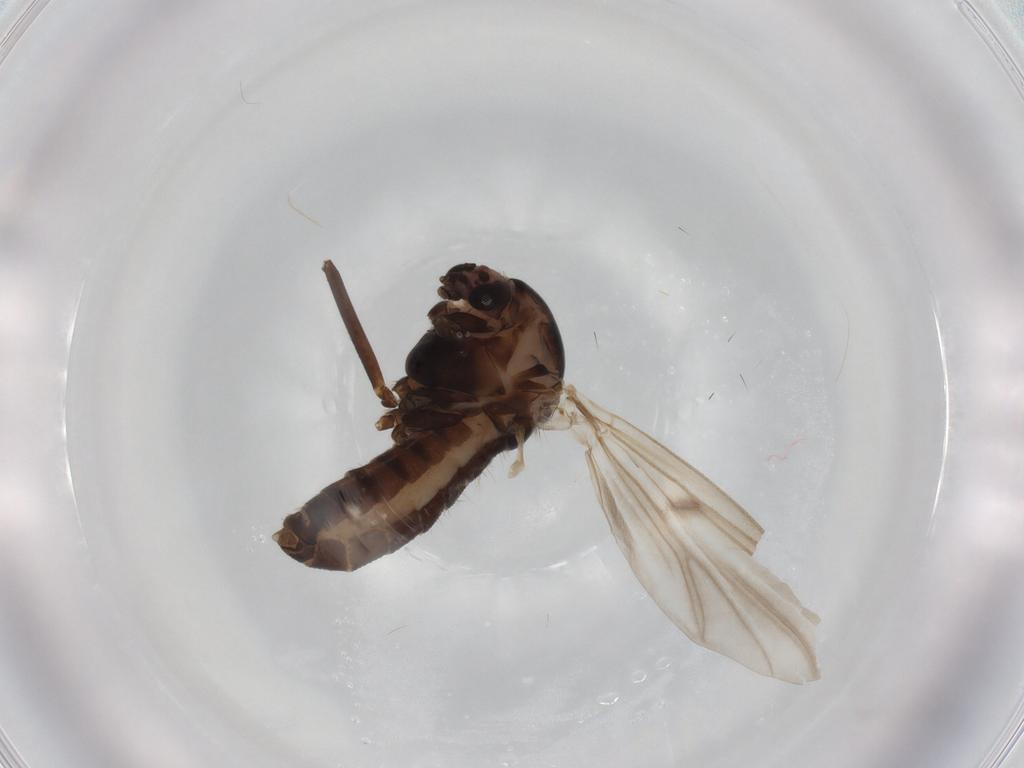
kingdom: Animalia
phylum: Arthropoda
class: Insecta
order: Diptera
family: Chironomidae
